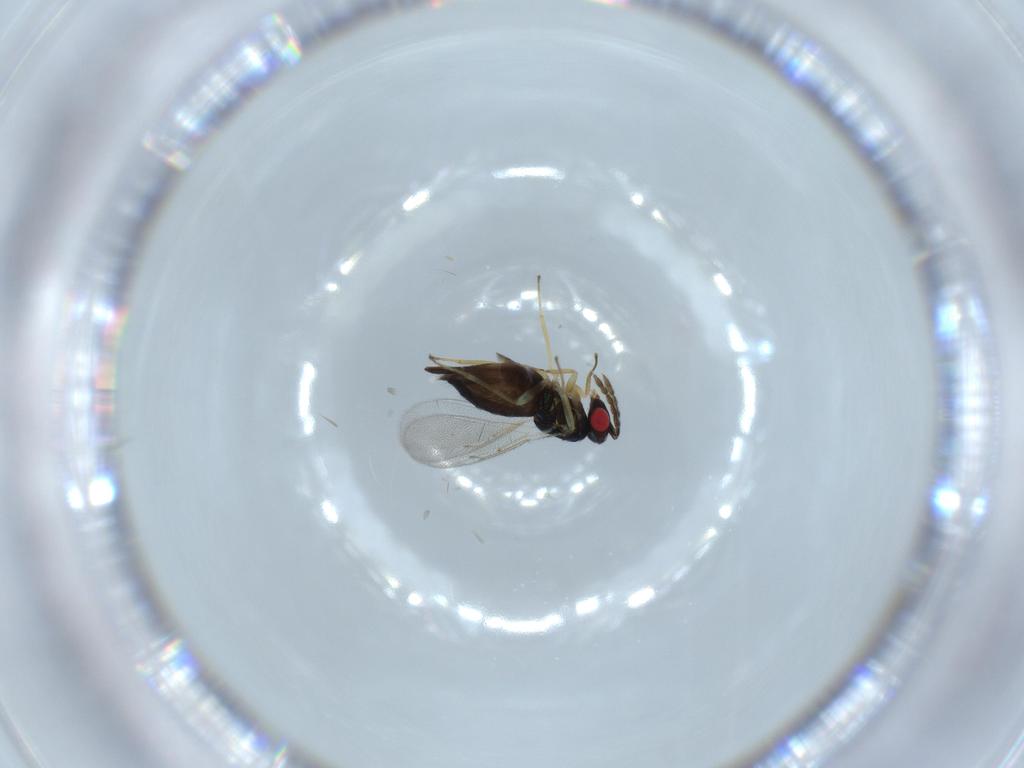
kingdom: Animalia
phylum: Arthropoda
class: Insecta
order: Hymenoptera
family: Eulophidae
